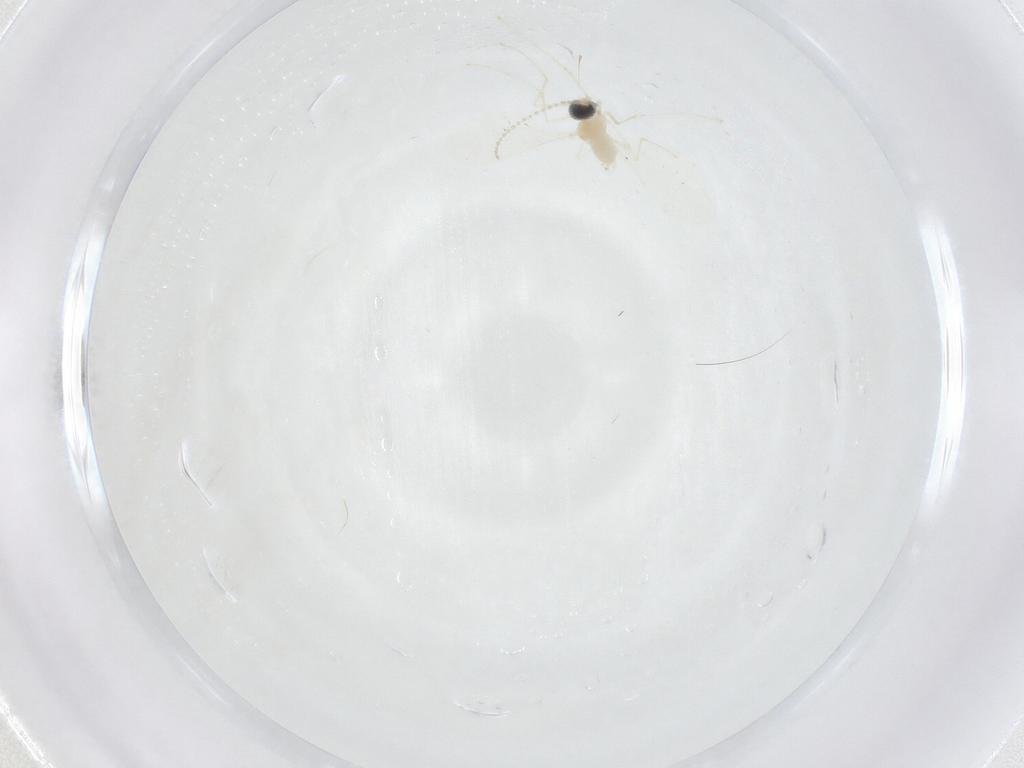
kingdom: Animalia
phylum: Arthropoda
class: Insecta
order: Diptera
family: Cecidomyiidae
